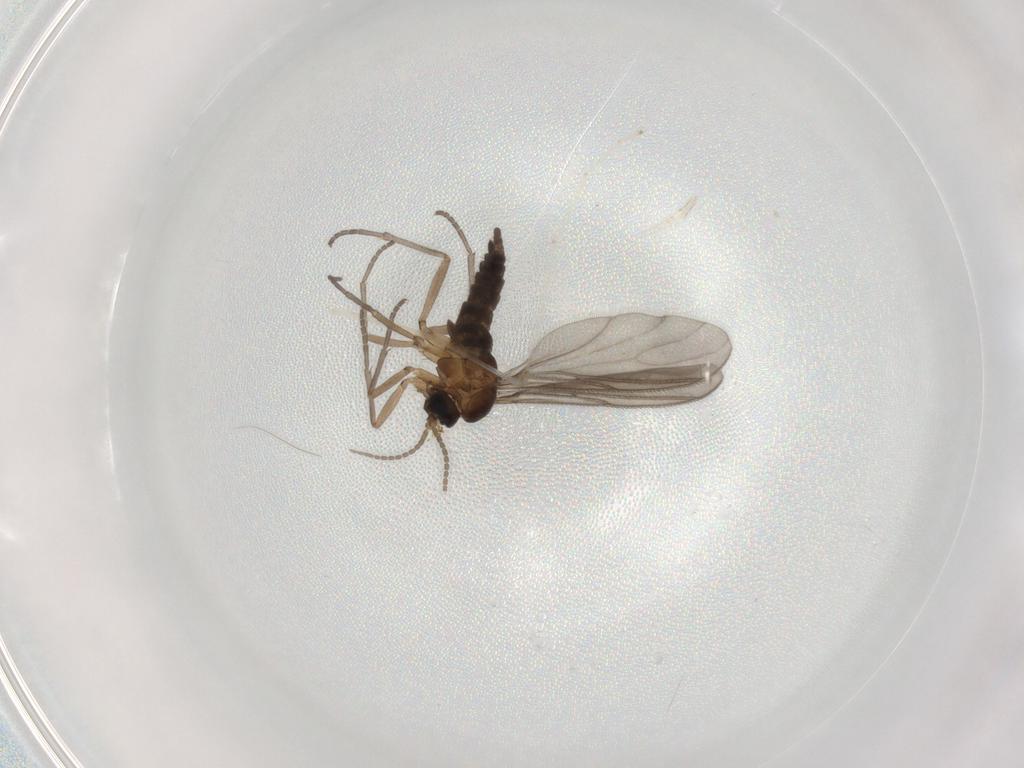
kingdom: Animalia
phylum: Arthropoda
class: Insecta
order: Diptera
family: Sciaridae
